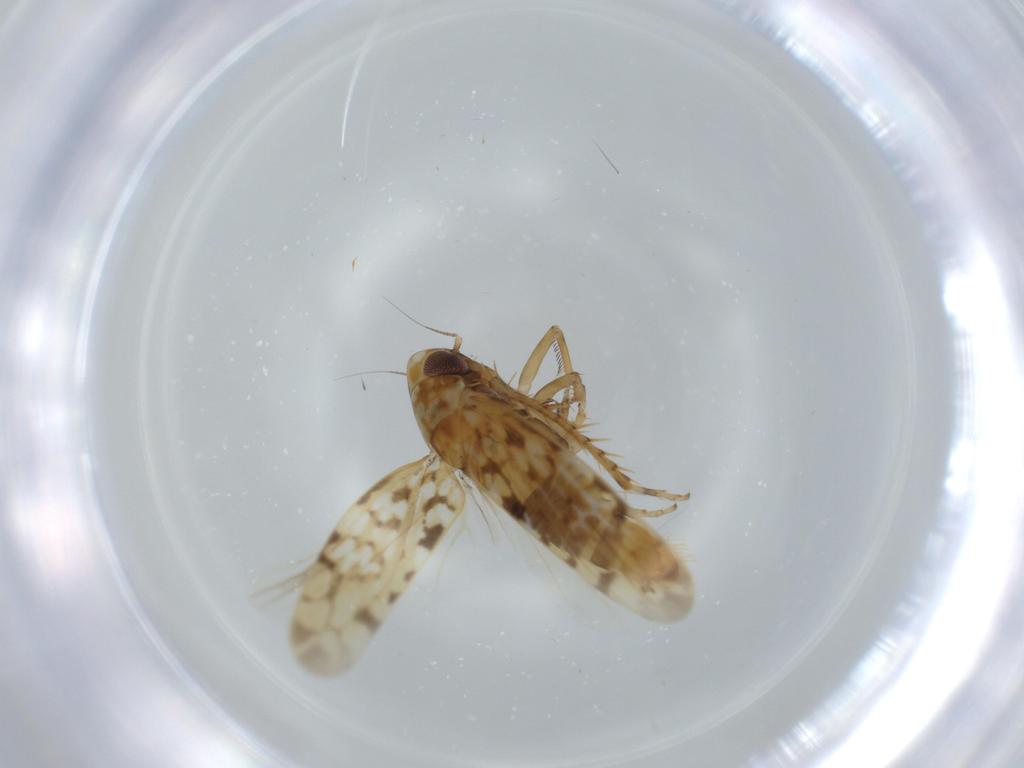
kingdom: Animalia
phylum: Arthropoda
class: Insecta
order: Hemiptera
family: Cicadellidae
